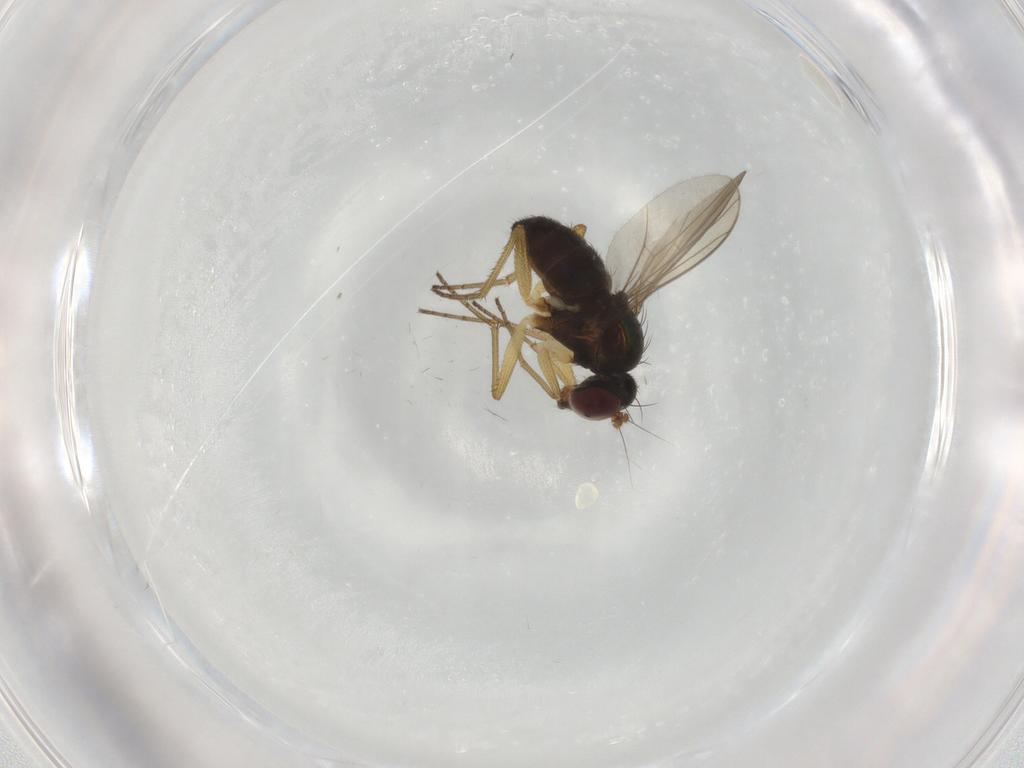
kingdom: Animalia
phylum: Arthropoda
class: Insecta
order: Diptera
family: Dolichopodidae
